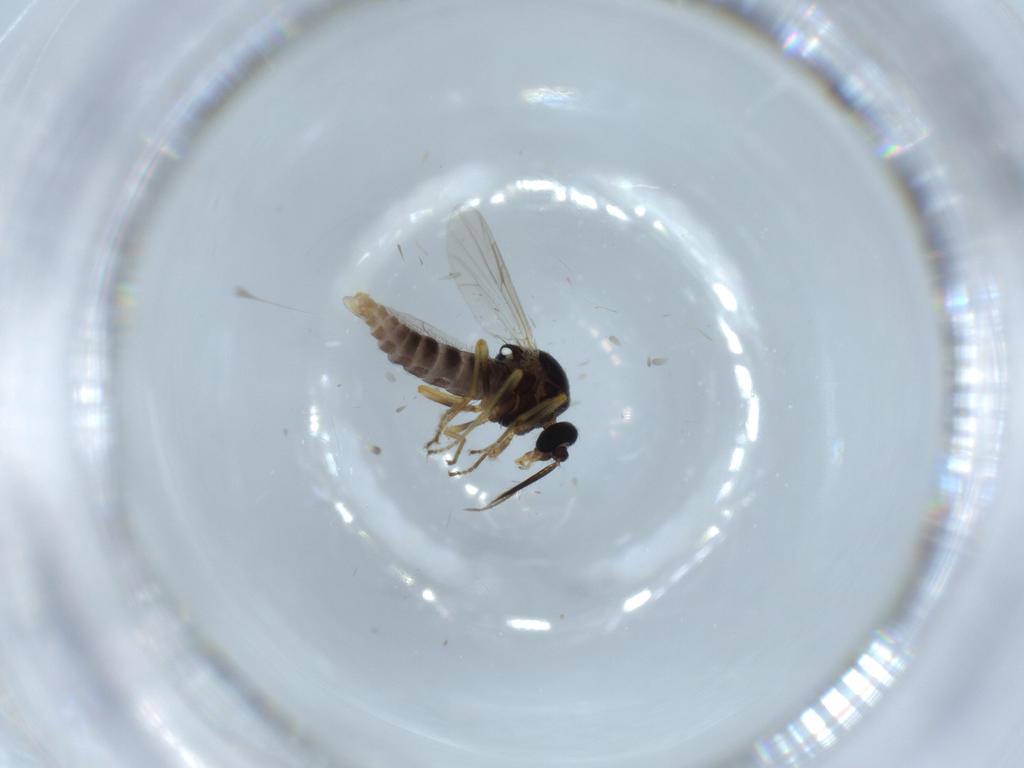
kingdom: Animalia
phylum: Arthropoda
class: Insecta
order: Diptera
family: Ceratopogonidae
